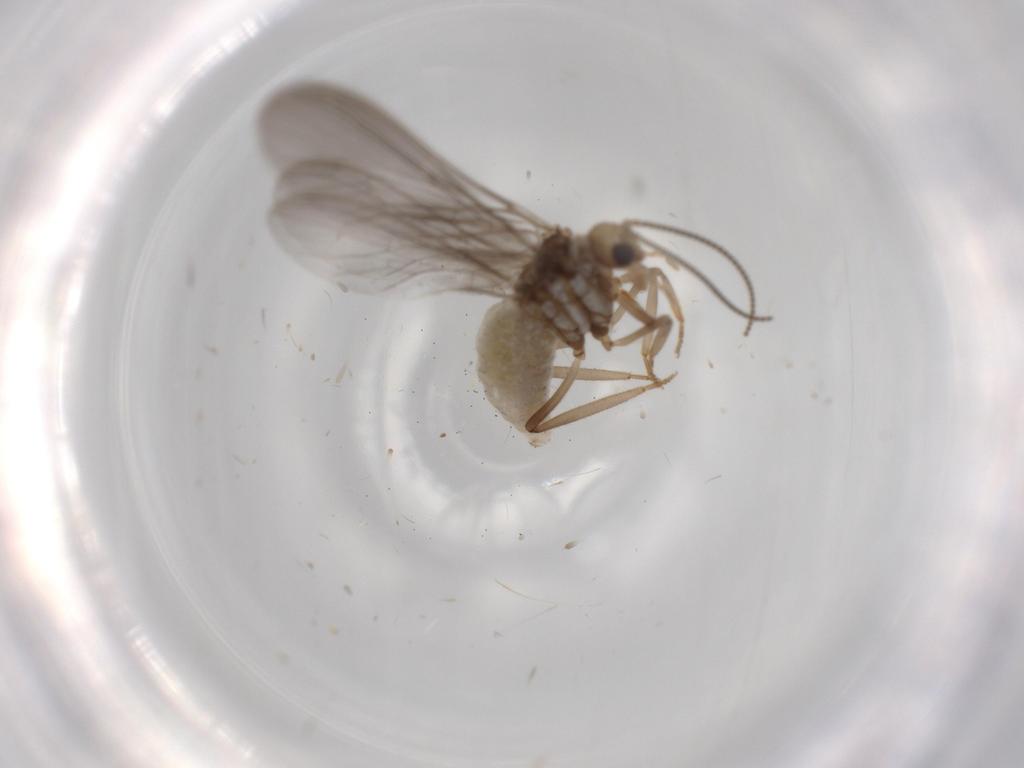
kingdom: Animalia
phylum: Arthropoda
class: Insecta
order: Neuroptera
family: Coniopterygidae
